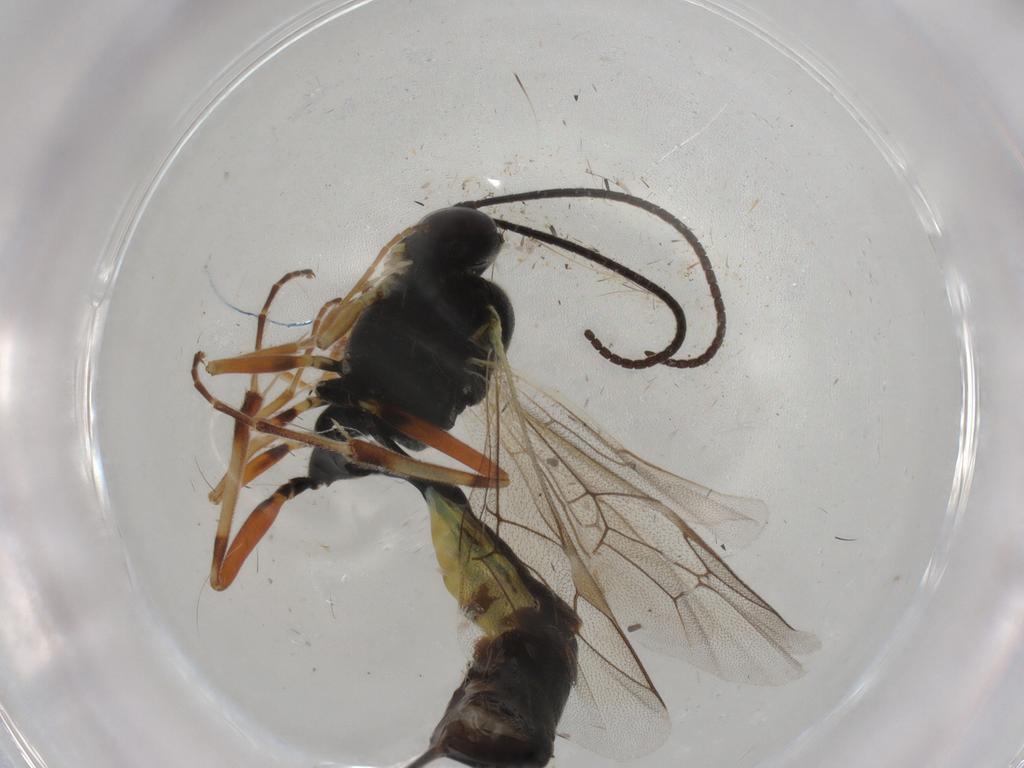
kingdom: Animalia
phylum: Arthropoda
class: Insecta
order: Hymenoptera
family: Ichneumonidae
